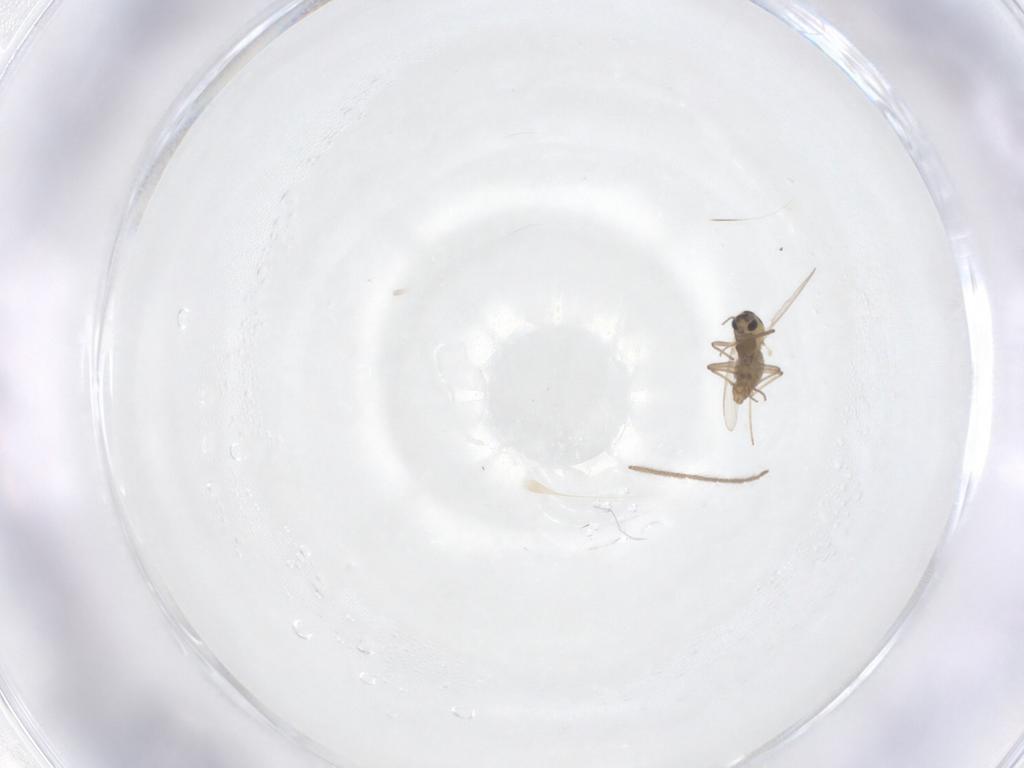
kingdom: Animalia
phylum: Arthropoda
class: Insecta
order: Diptera
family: Chironomidae
